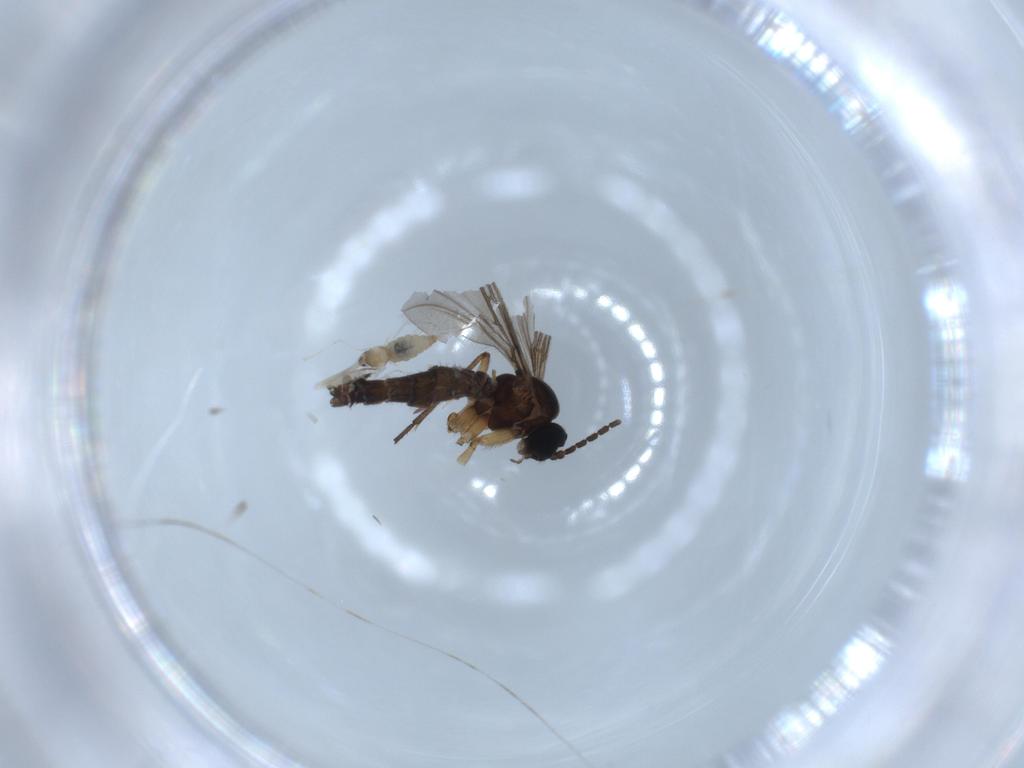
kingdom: Animalia
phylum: Arthropoda
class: Insecta
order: Diptera
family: Sciaridae
